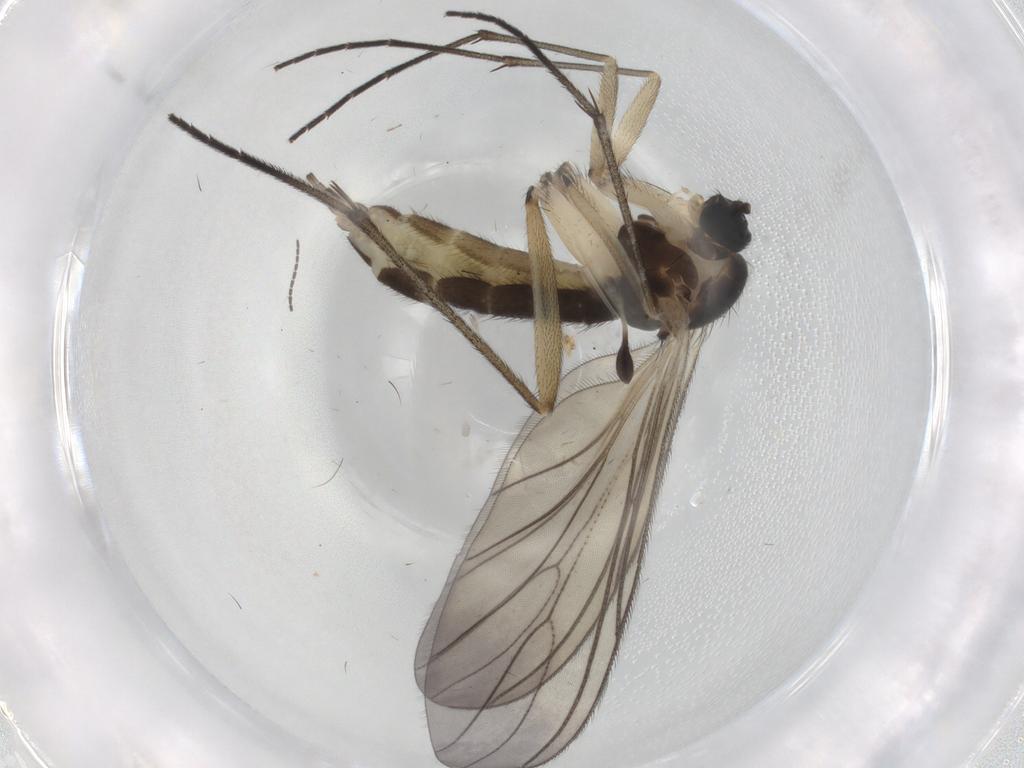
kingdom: Animalia
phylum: Arthropoda
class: Insecta
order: Diptera
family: Sciaridae
